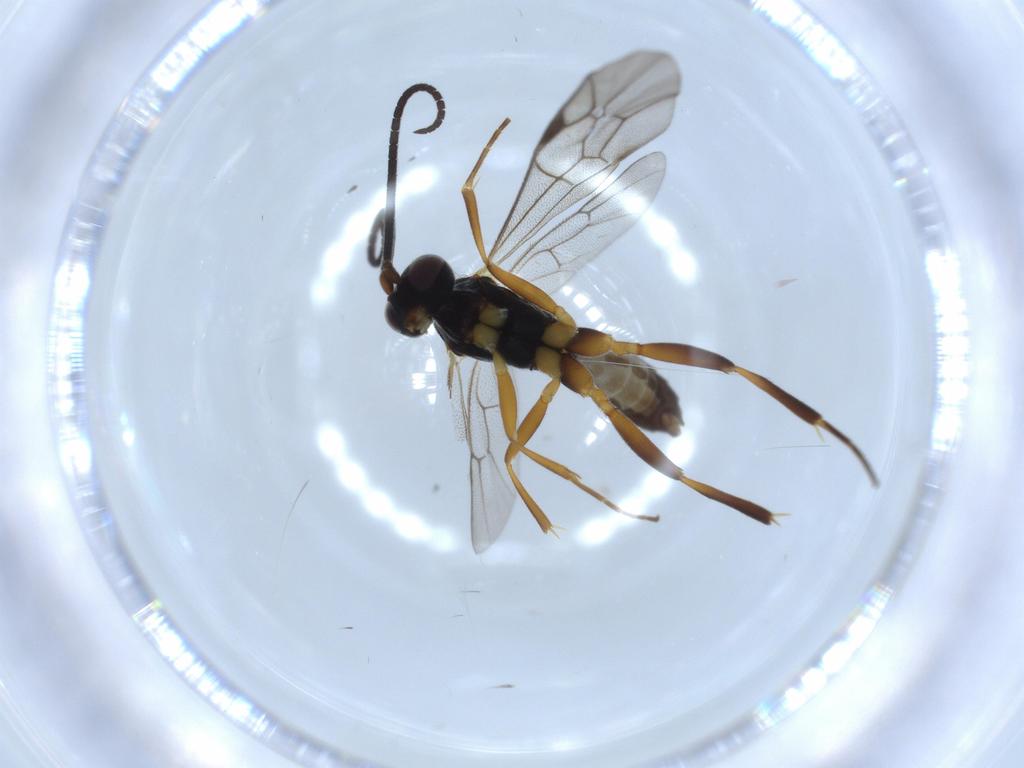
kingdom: Animalia
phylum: Arthropoda
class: Insecta
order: Hymenoptera
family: Ichneumonidae
